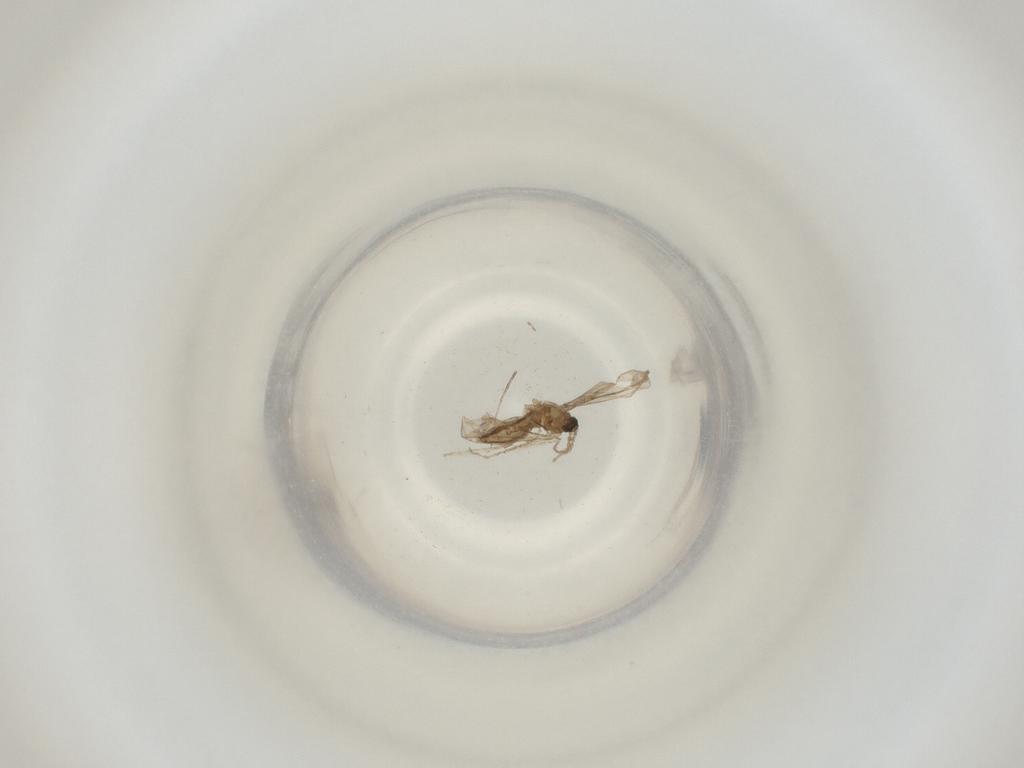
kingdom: Animalia
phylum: Arthropoda
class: Insecta
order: Diptera
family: Cecidomyiidae
